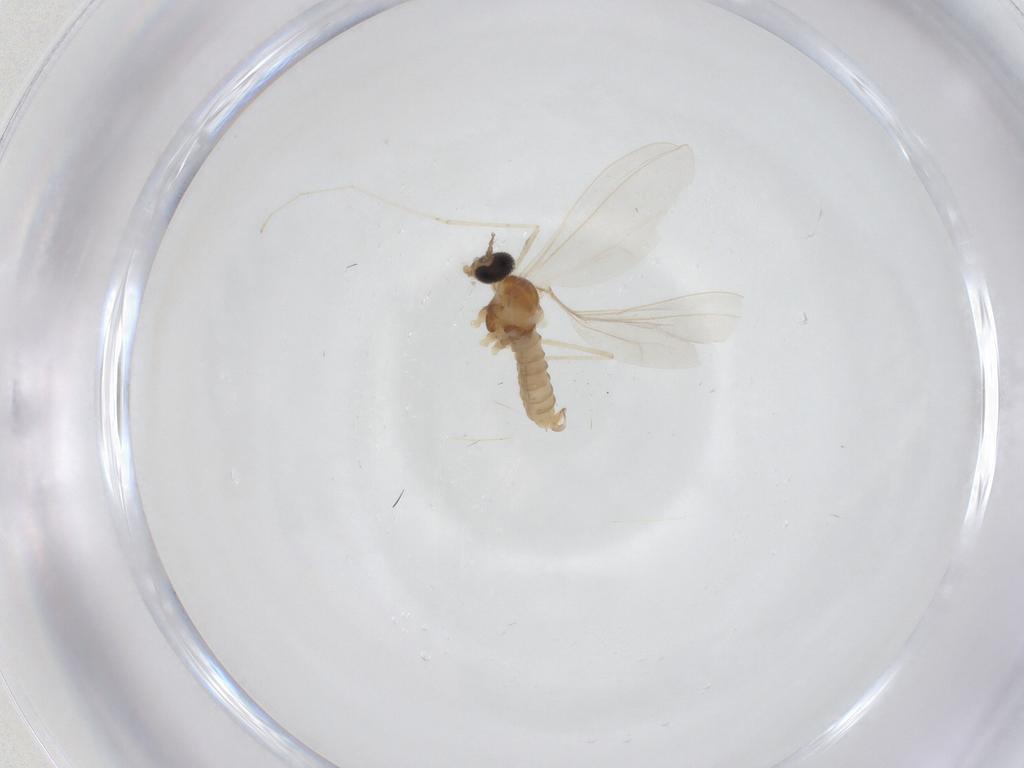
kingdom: Animalia
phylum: Arthropoda
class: Insecta
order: Diptera
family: Cecidomyiidae
